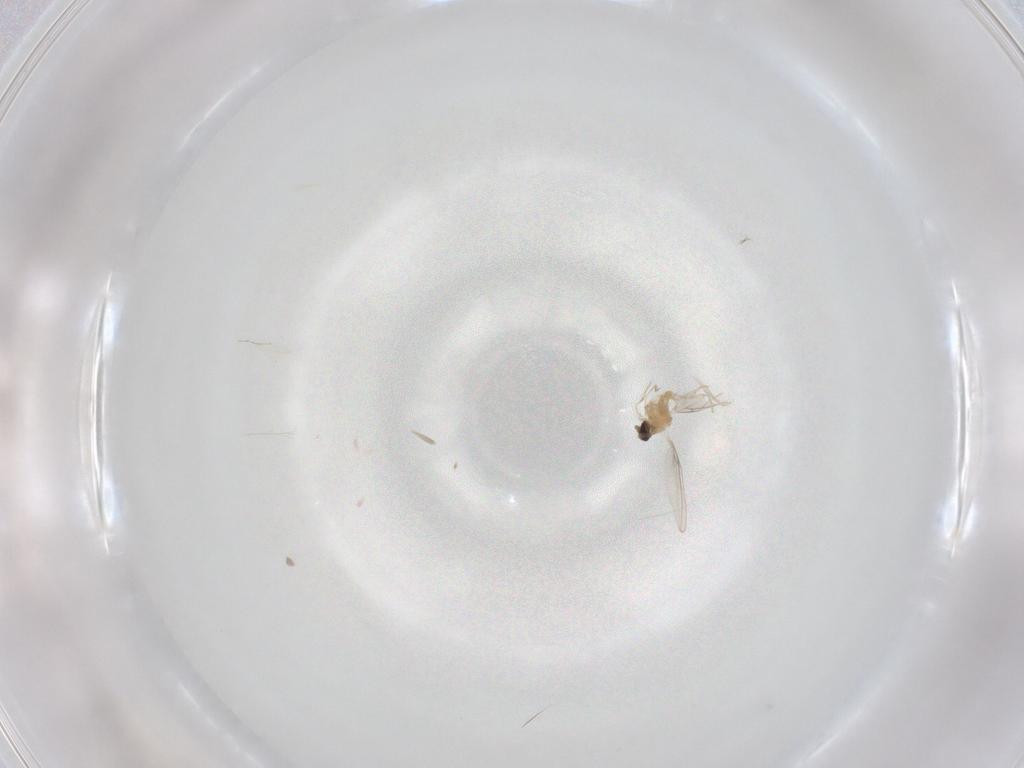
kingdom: Animalia
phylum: Arthropoda
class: Insecta
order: Diptera
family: Cecidomyiidae
